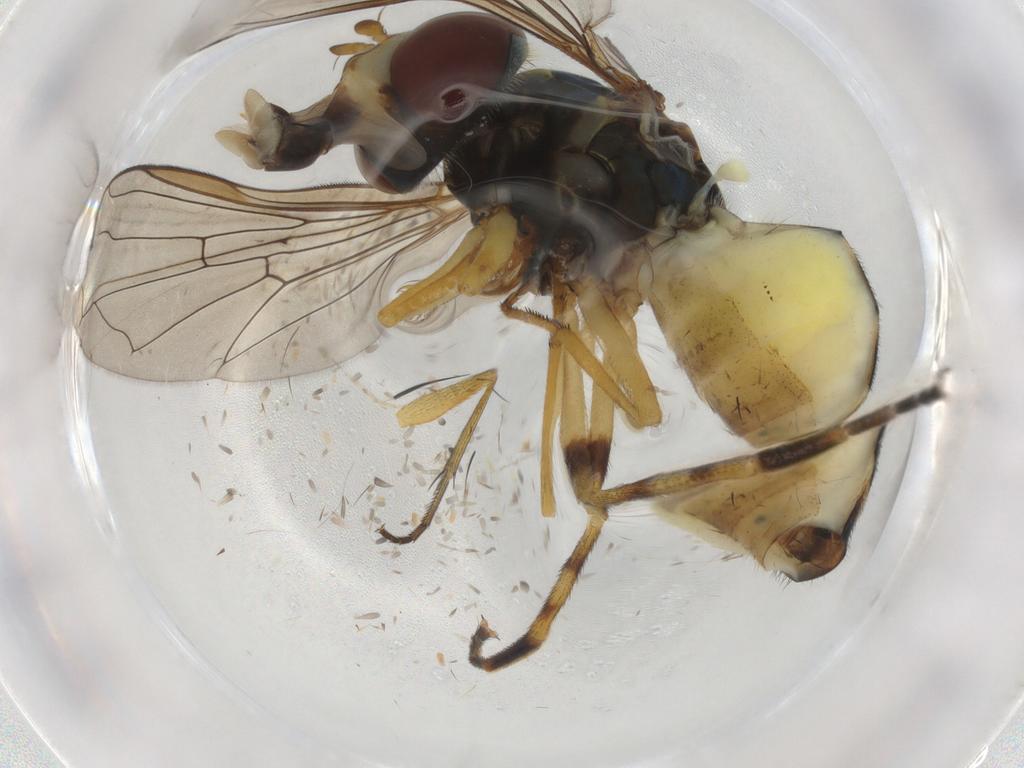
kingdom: Animalia
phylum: Arthropoda
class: Insecta
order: Diptera
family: Syrphidae
